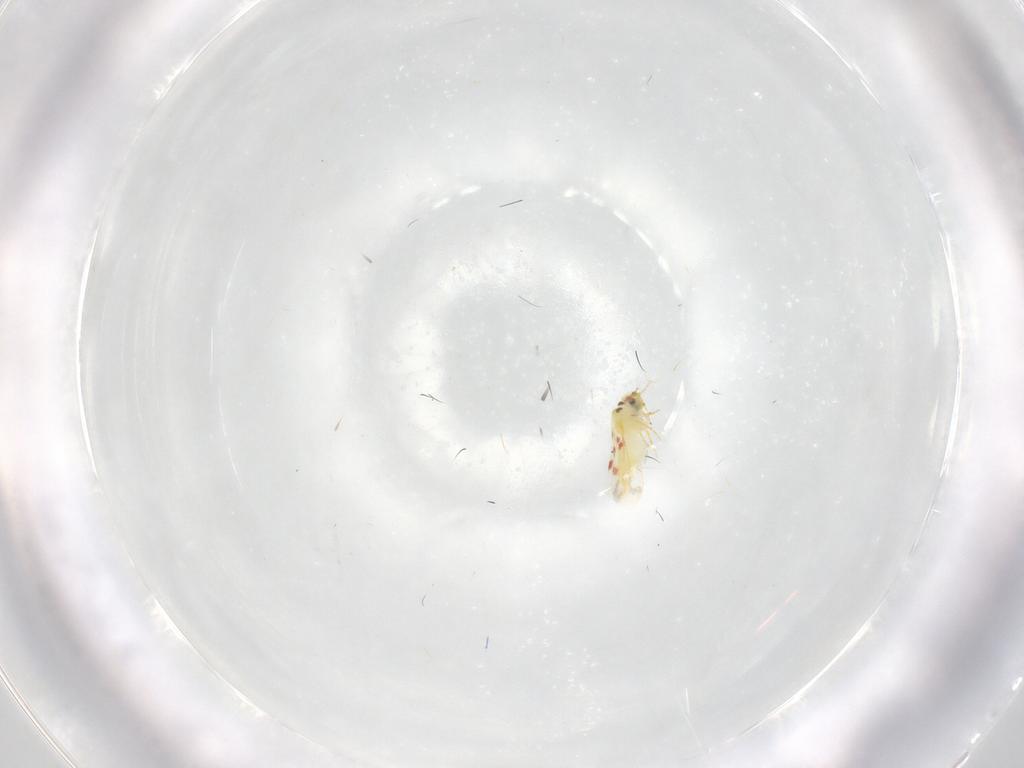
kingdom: Animalia
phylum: Arthropoda
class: Insecta
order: Hemiptera
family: Aleyrodidae
